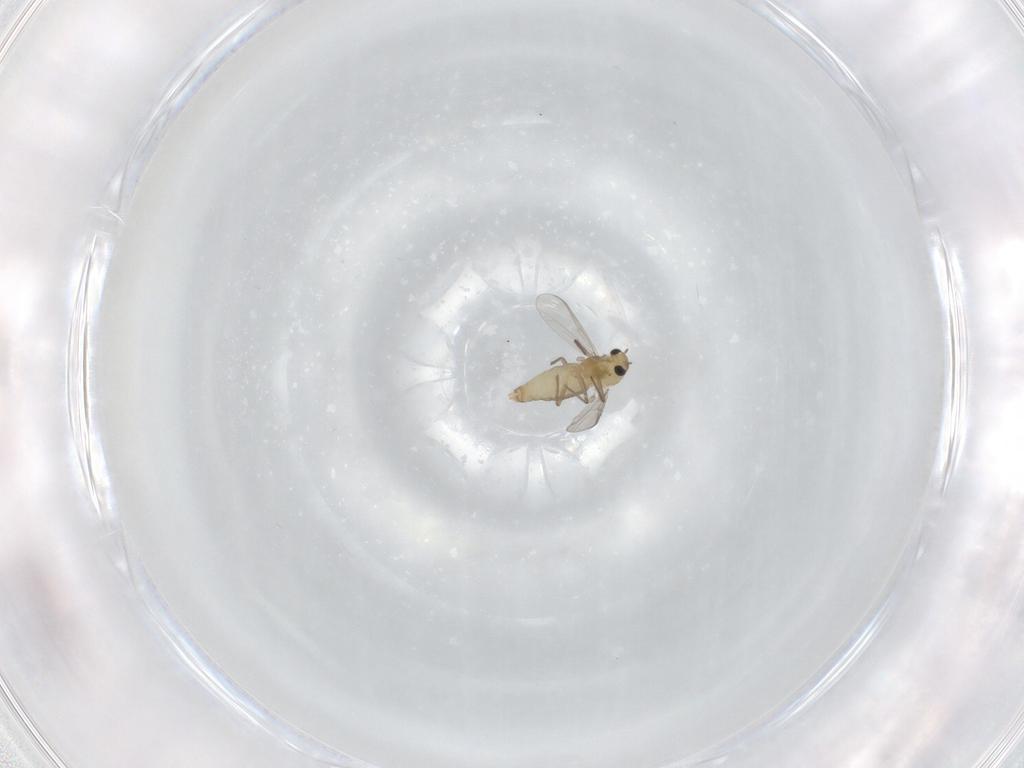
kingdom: Animalia
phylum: Arthropoda
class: Insecta
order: Diptera
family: Chironomidae
